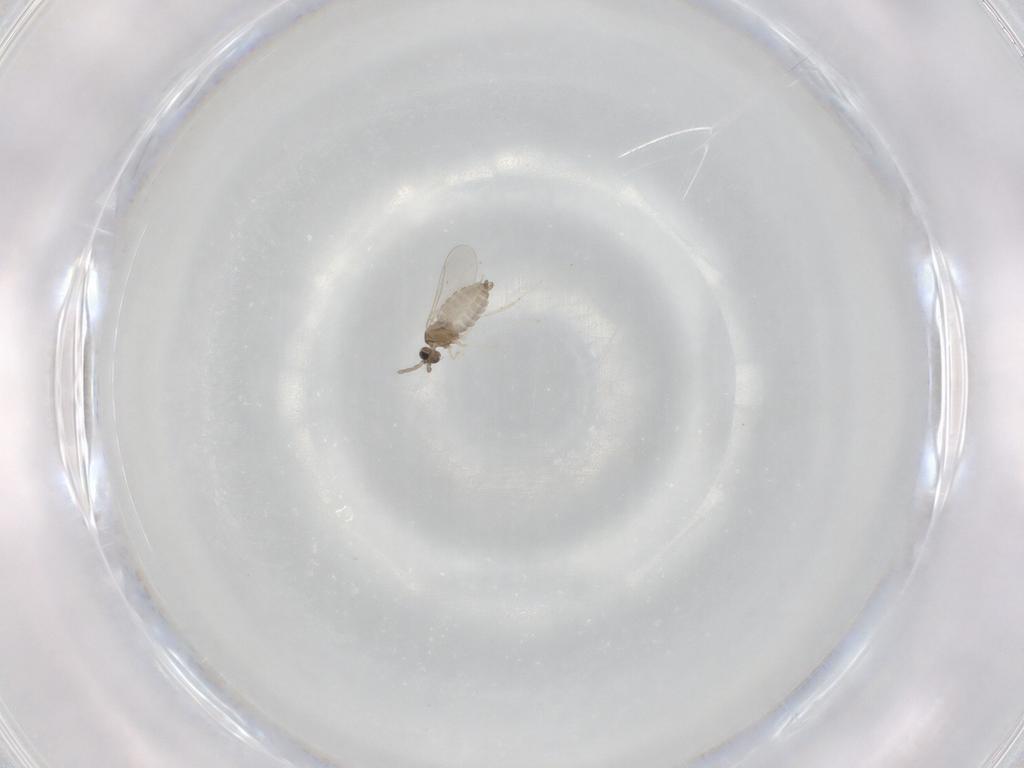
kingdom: Animalia
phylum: Arthropoda
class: Insecta
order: Diptera
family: Cecidomyiidae
